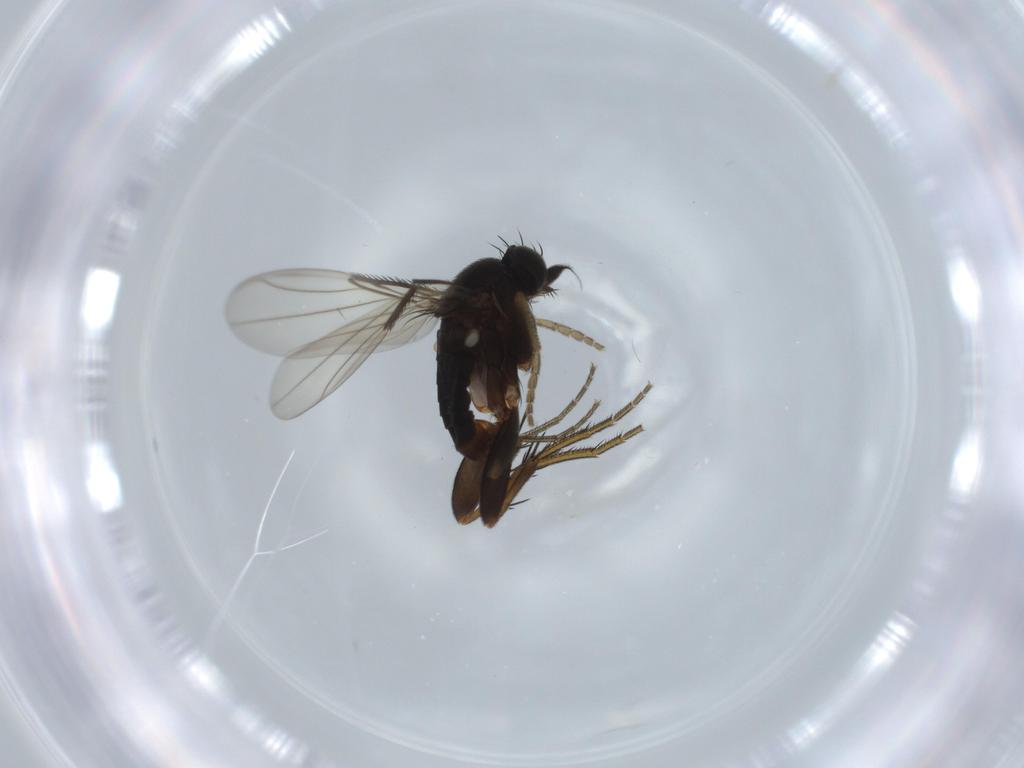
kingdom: Animalia
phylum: Arthropoda
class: Insecta
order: Diptera
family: Phoridae
